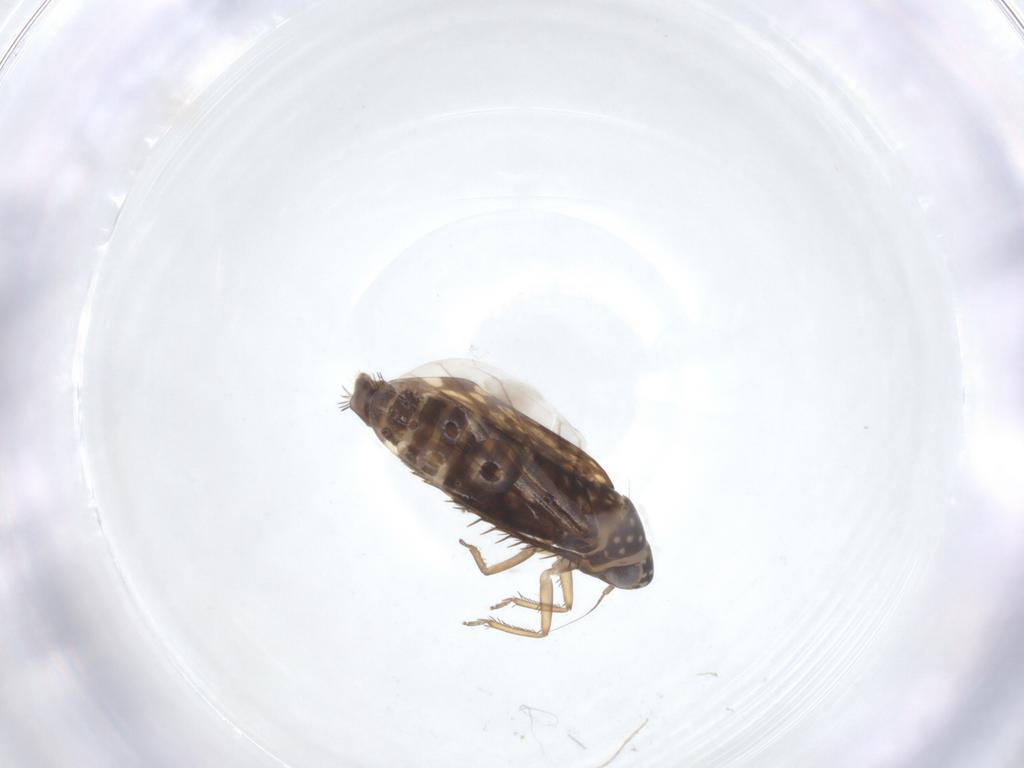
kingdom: Animalia
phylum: Arthropoda
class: Insecta
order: Hemiptera
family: Cicadellidae
